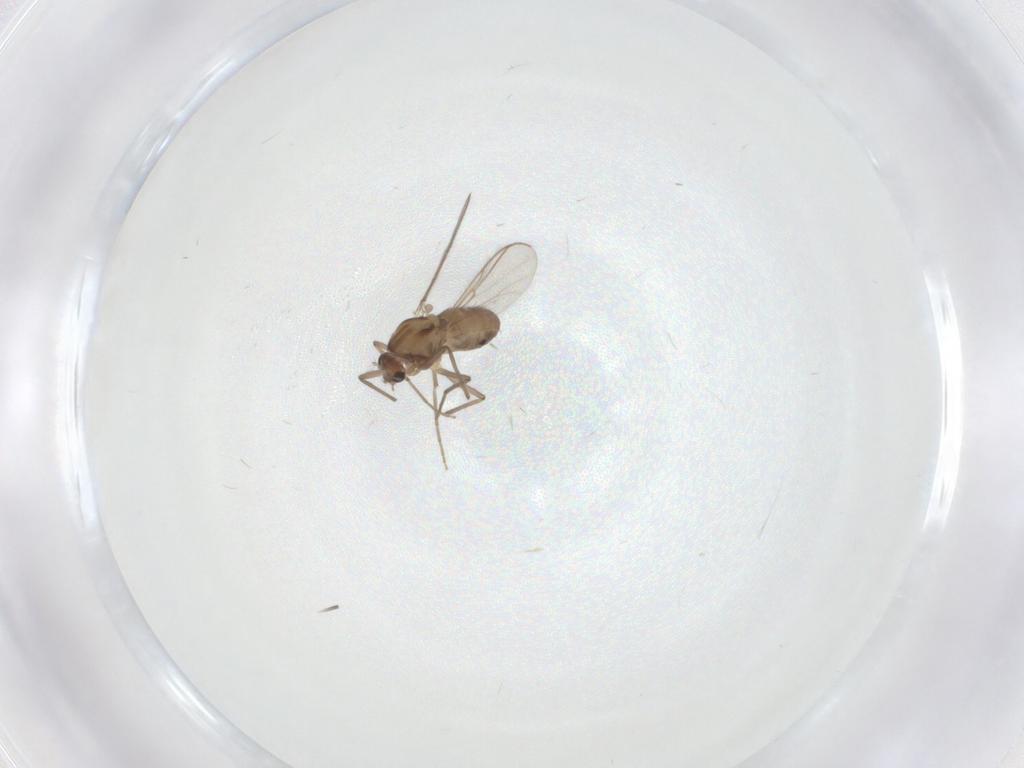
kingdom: Animalia
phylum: Arthropoda
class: Insecta
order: Diptera
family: Chironomidae
